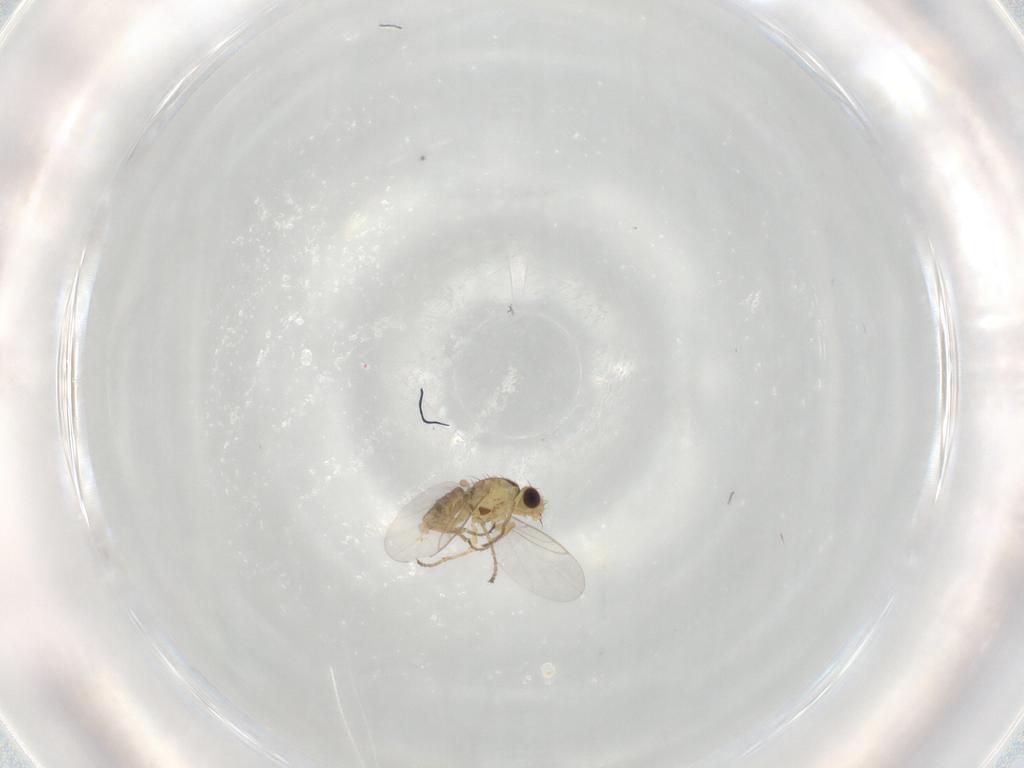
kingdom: Animalia
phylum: Arthropoda
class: Insecta
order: Diptera
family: Agromyzidae
